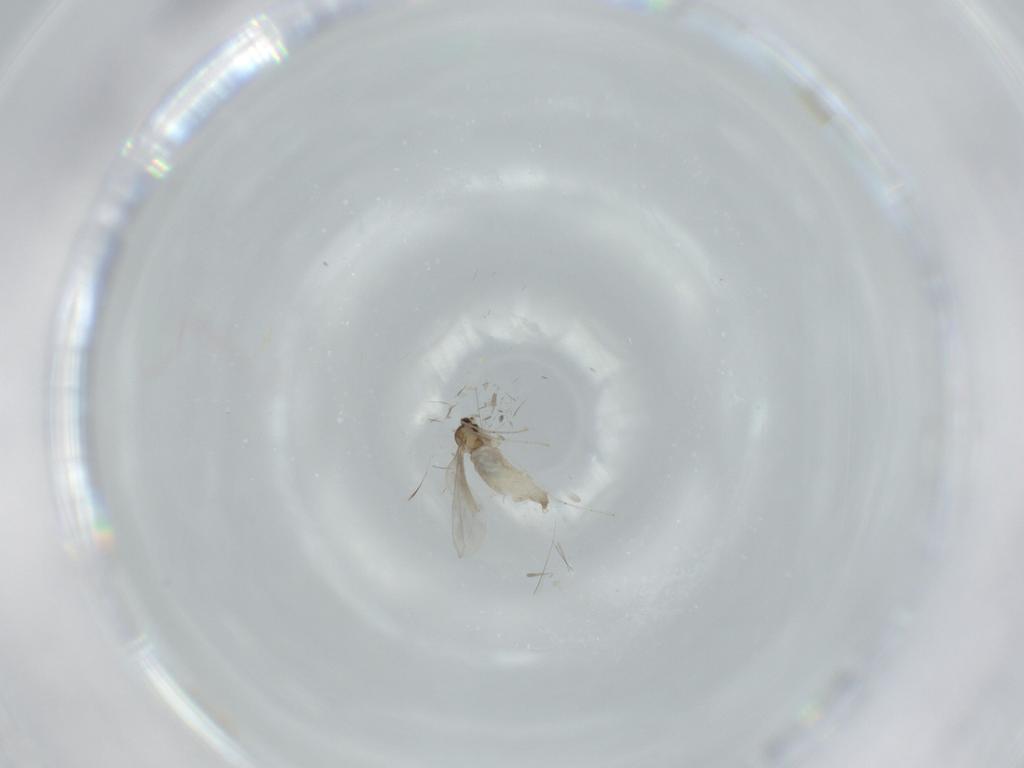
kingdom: Animalia
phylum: Arthropoda
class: Insecta
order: Diptera
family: Cecidomyiidae
